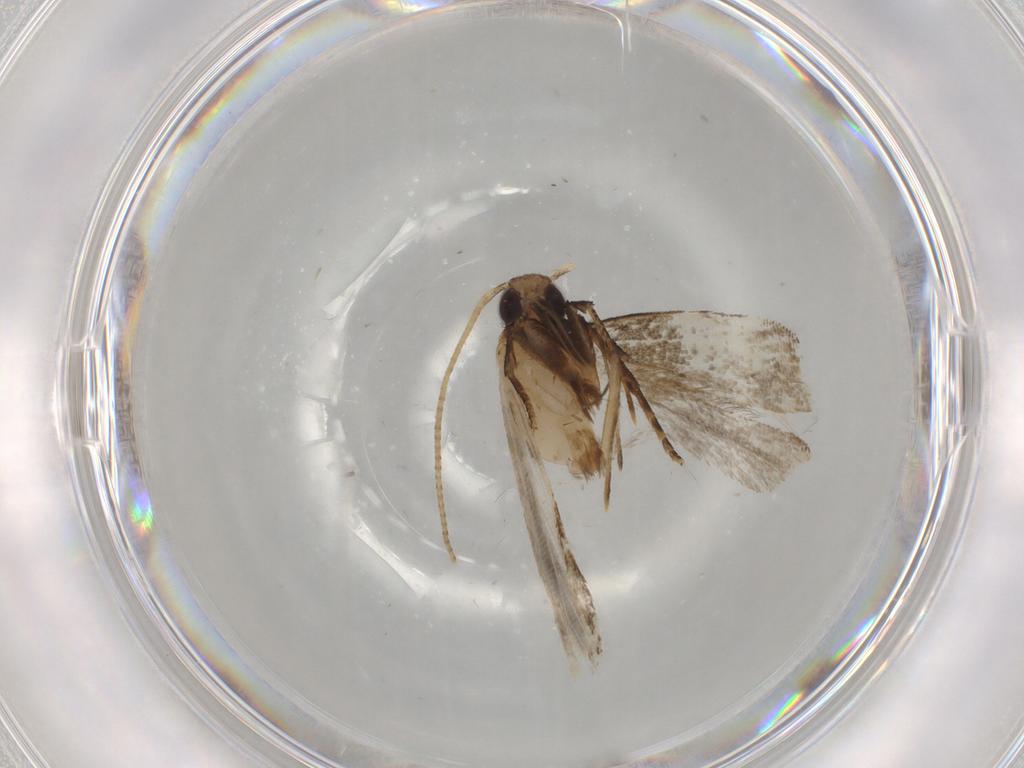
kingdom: Animalia
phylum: Arthropoda
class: Insecta
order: Lepidoptera
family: Gelechiidae
